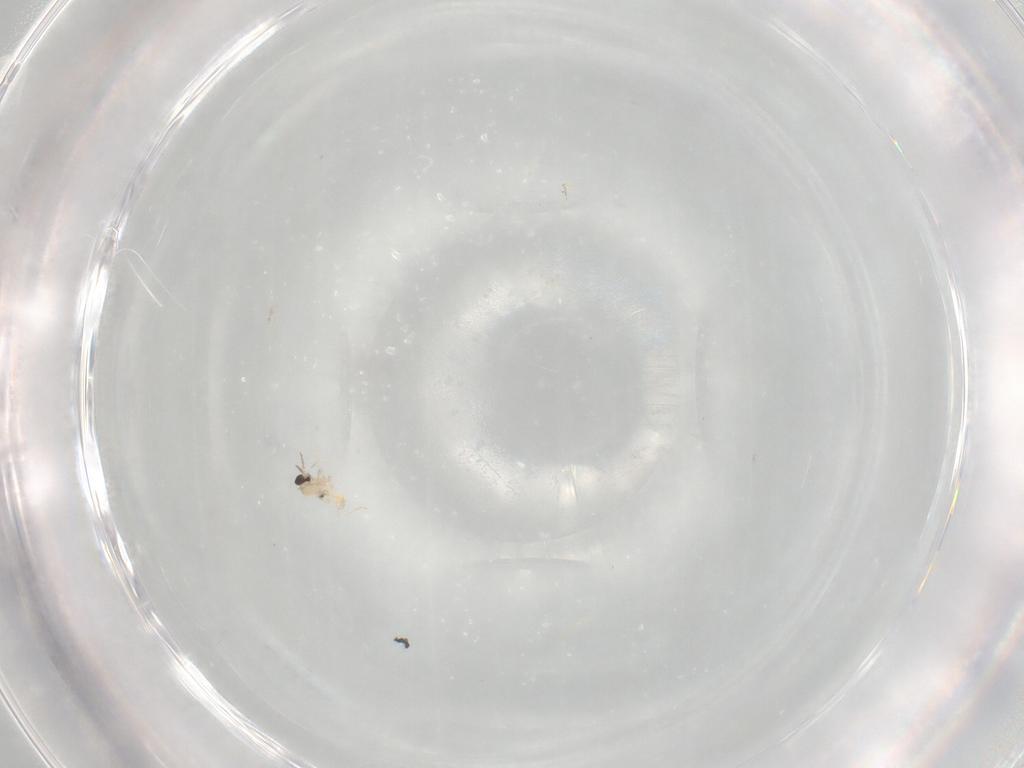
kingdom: Animalia
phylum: Arthropoda
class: Insecta
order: Diptera
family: Cecidomyiidae
